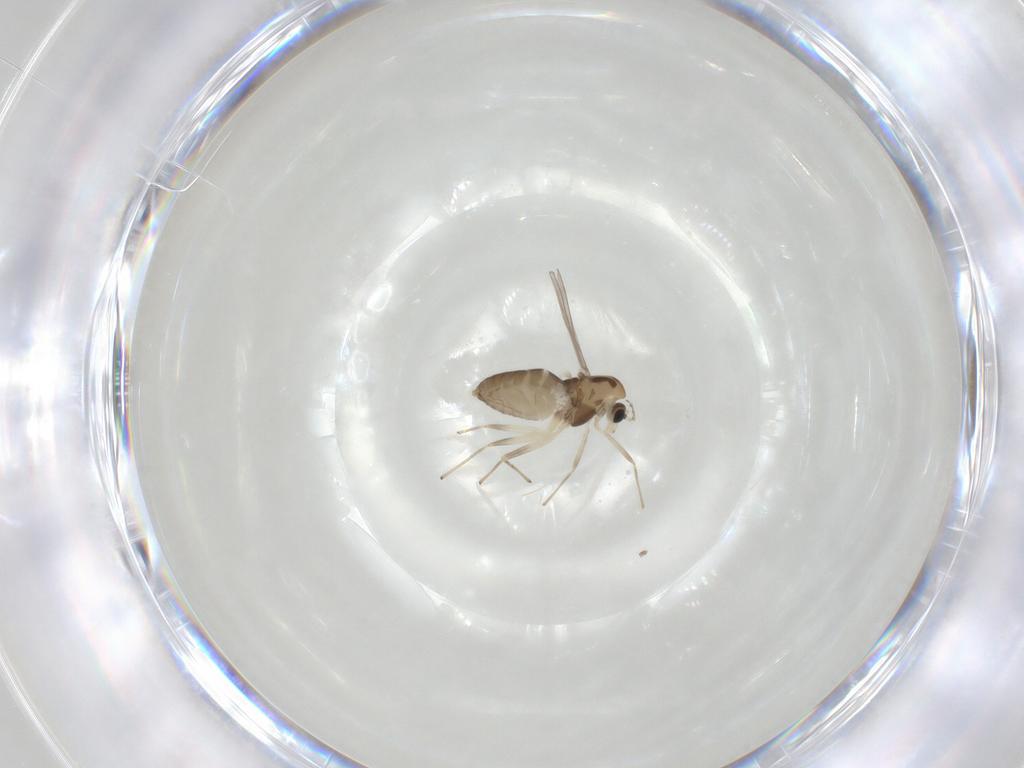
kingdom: Animalia
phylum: Arthropoda
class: Insecta
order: Diptera
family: Chironomidae
